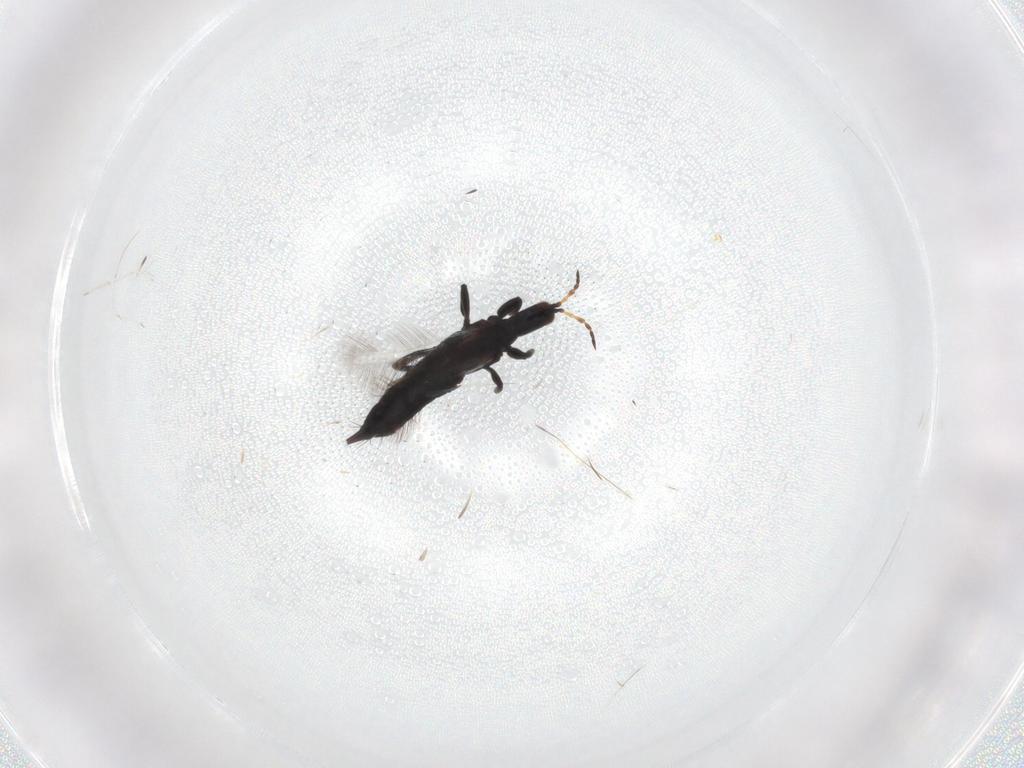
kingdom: Animalia
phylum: Arthropoda
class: Insecta
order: Thysanoptera
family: Phlaeothripidae
